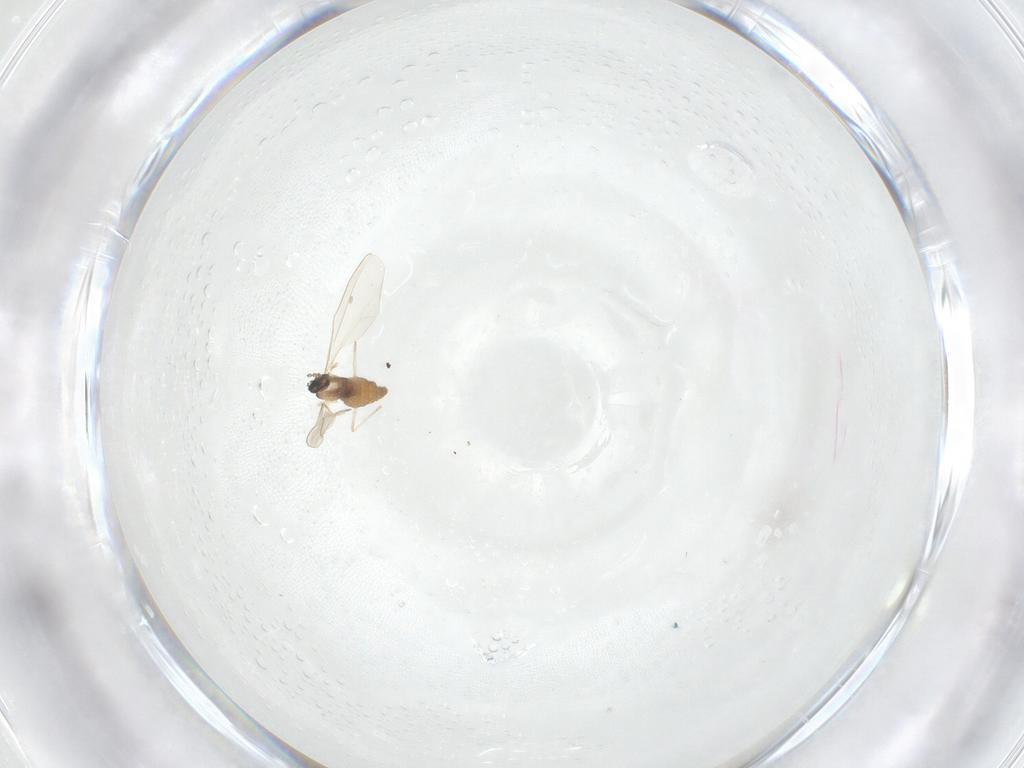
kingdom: Animalia
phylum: Arthropoda
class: Insecta
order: Diptera
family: Cecidomyiidae
